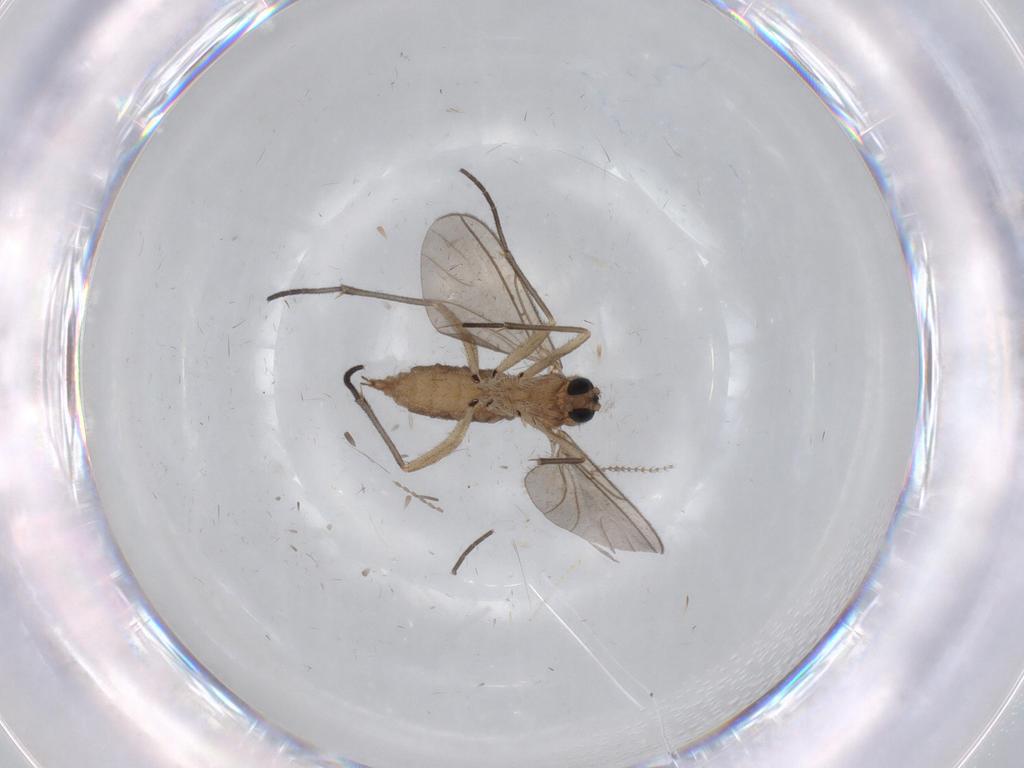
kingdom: Animalia
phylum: Arthropoda
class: Insecta
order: Diptera
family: Sciaridae
